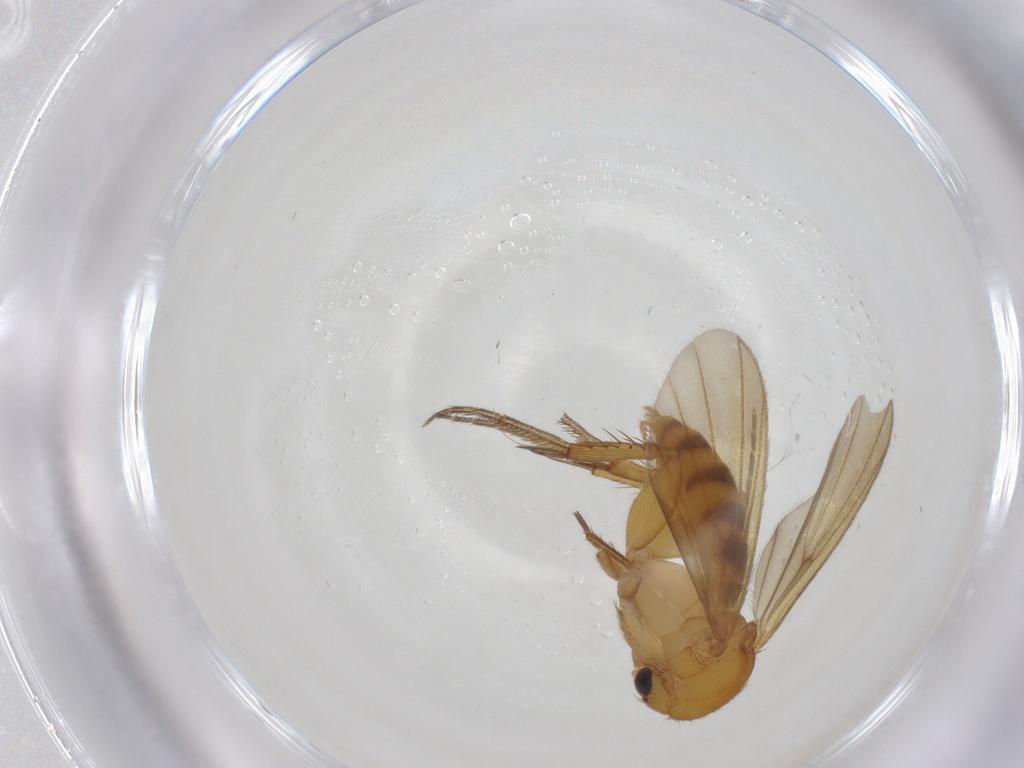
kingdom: Animalia
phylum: Arthropoda
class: Insecta
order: Diptera
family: Mycetophilidae
